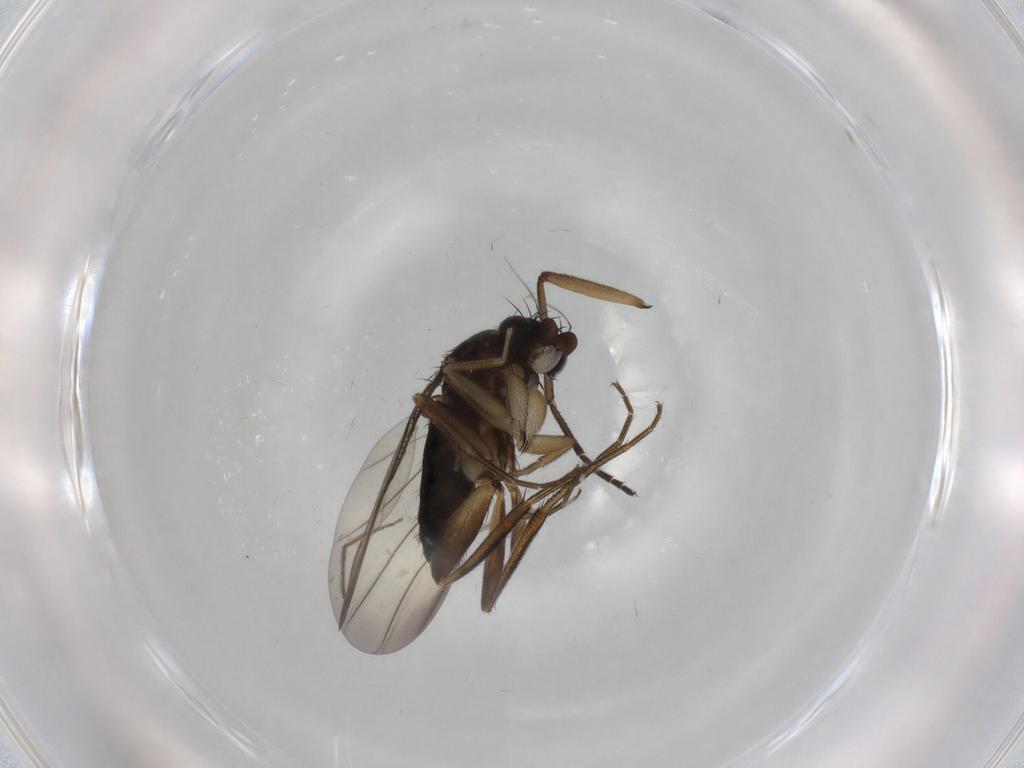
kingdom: Animalia
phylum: Arthropoda
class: Insecta
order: Diptera
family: Phoridae
